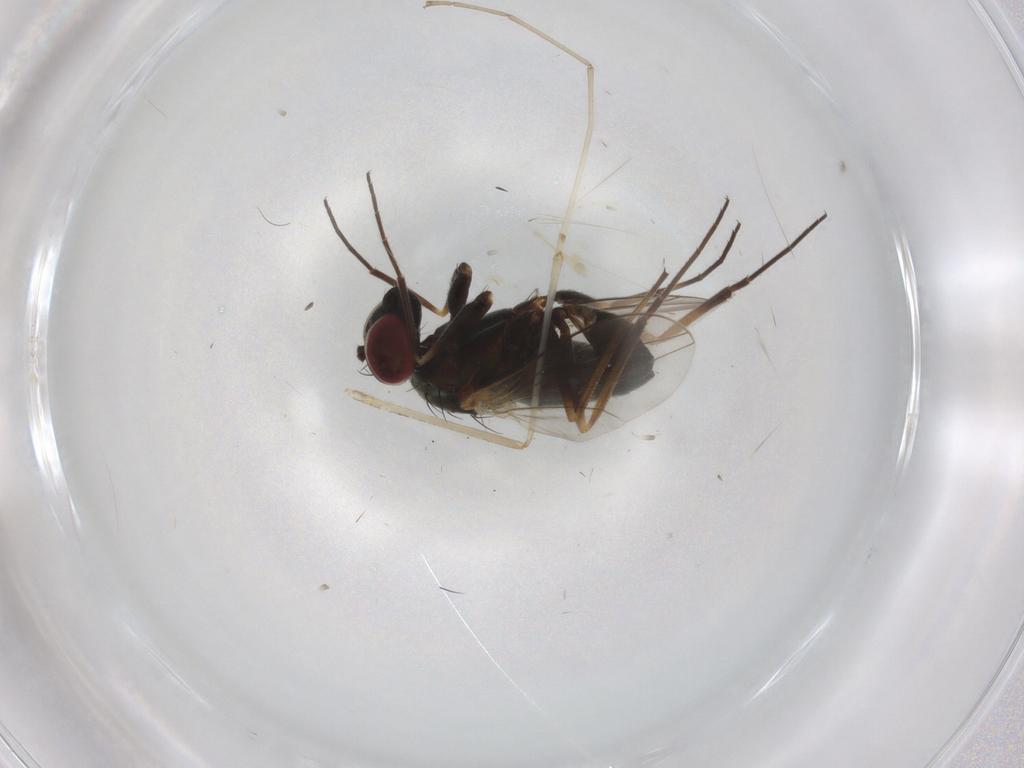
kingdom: Animalia
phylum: Arthropoda
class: Insecta
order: Diptera
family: Dolichopodidae
